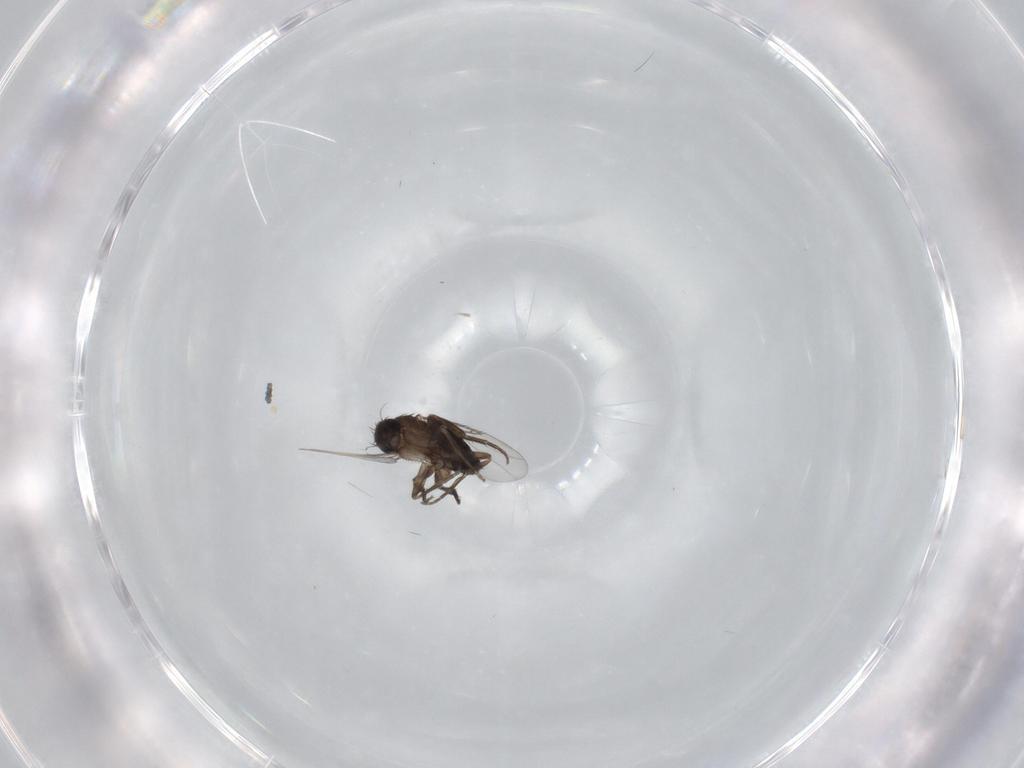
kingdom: Animalia
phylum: Arthropoda
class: Insecta
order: Diptera
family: Phoridae
